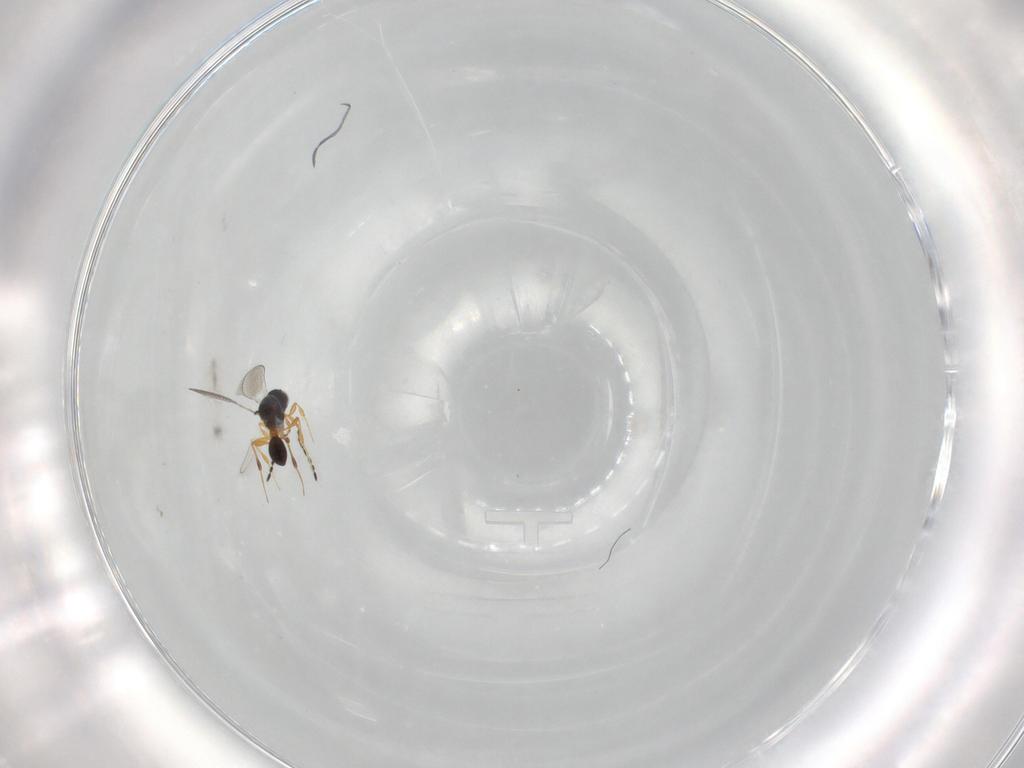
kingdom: Animalia
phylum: Arthropoda
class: Insecta
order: Hymenoptera
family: Platygastridae
